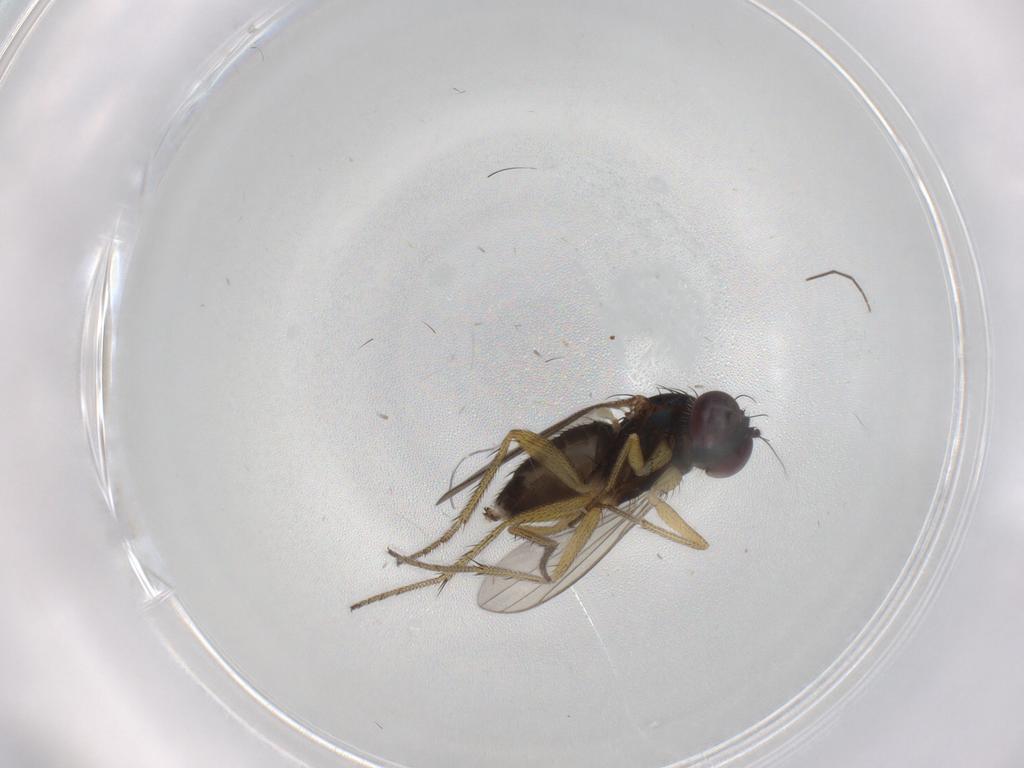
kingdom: Animalia
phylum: Arthropoda
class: Insecta
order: Diptera
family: Dolichopodidae
